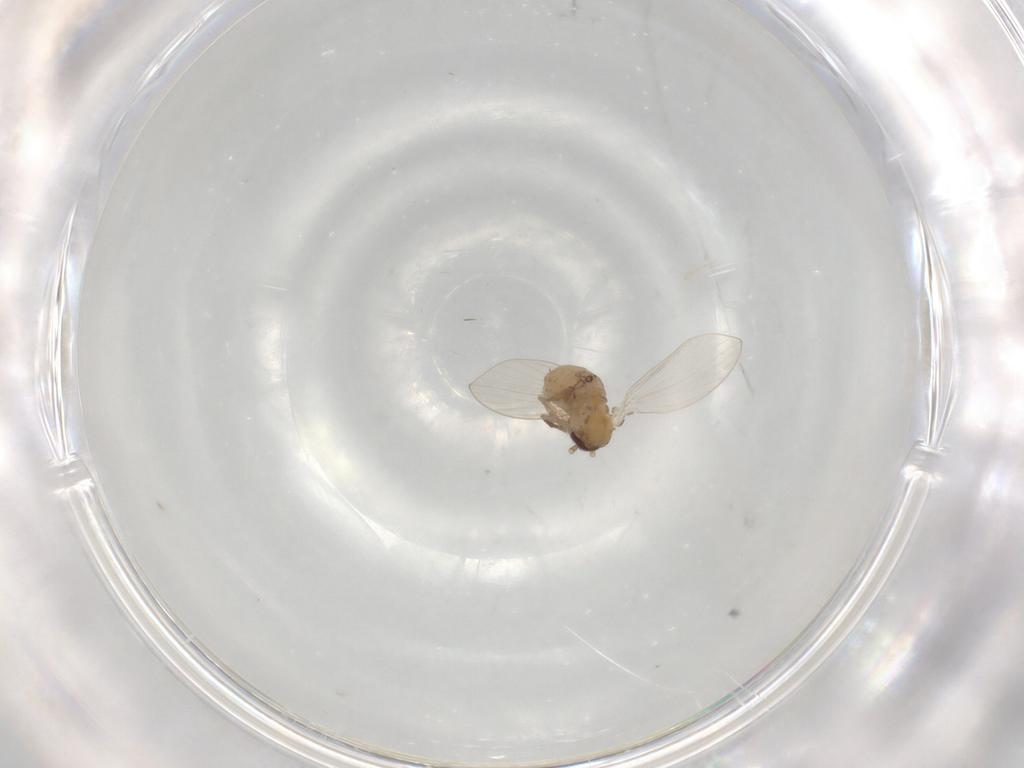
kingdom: Animalia
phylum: Arthropoda
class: Insecta
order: Diptera
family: Psychodidae
